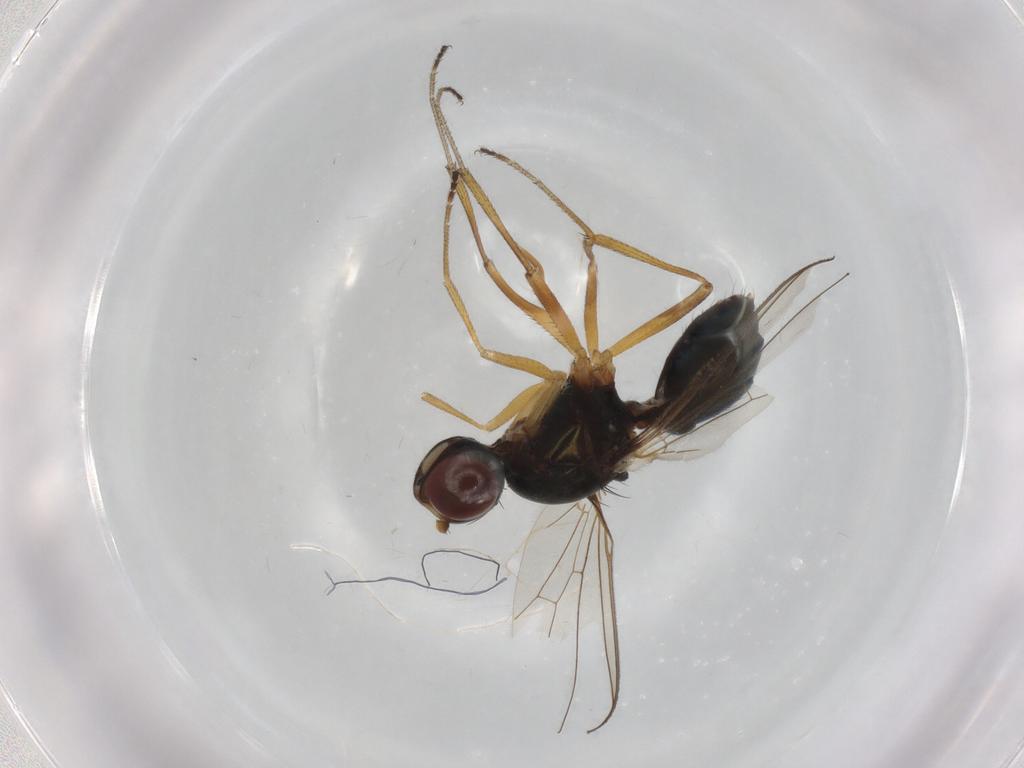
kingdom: Animalia
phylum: Arthropoda
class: Insecta
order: Diptera
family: Sepsidae
